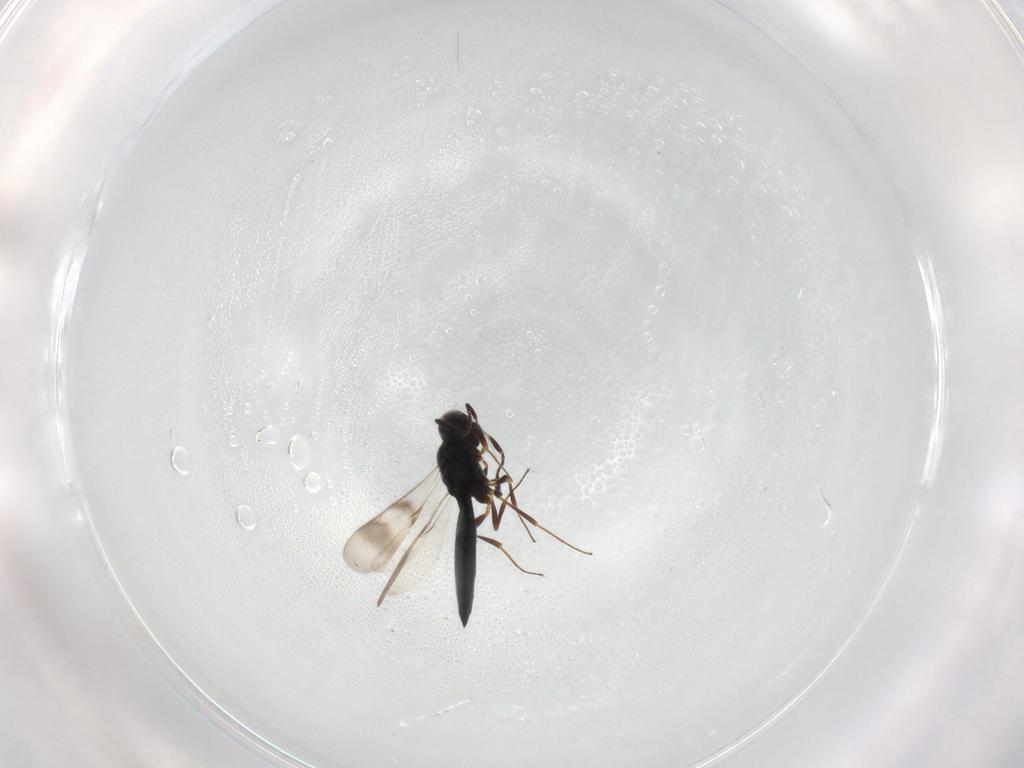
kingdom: Animalia
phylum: Arthropoda
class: Insecta
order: Hymenoptera
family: Scelionidae
